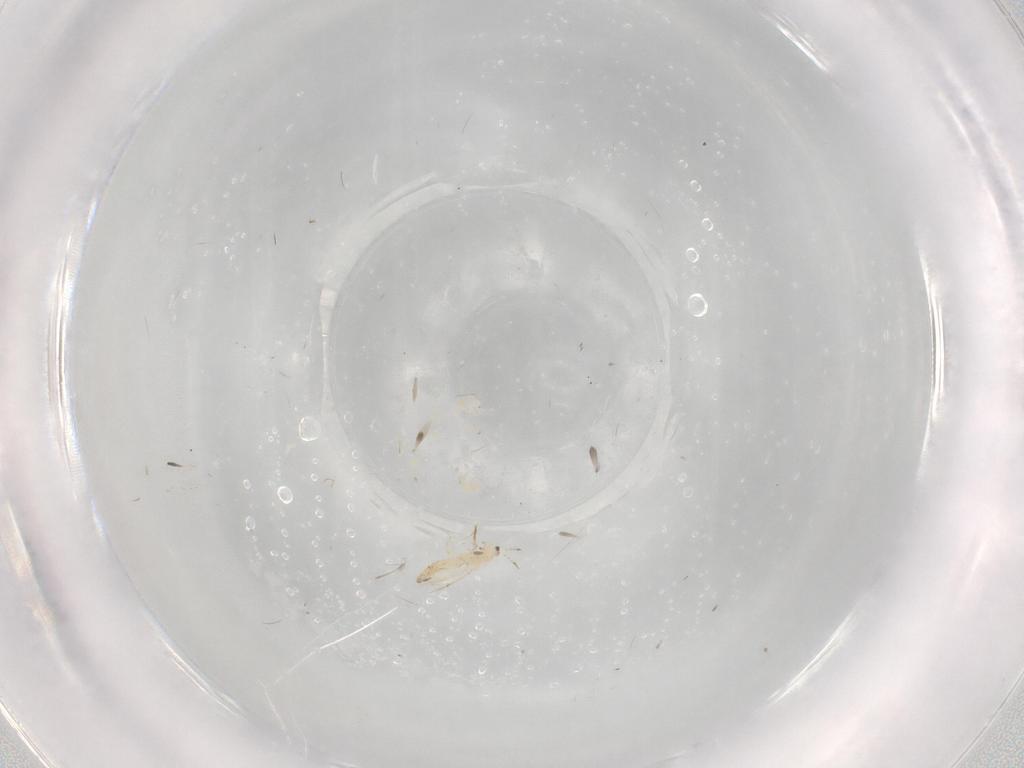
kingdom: Animalia
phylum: Arthropoda
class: Insecta
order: Thysanoptera
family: Thripidae
